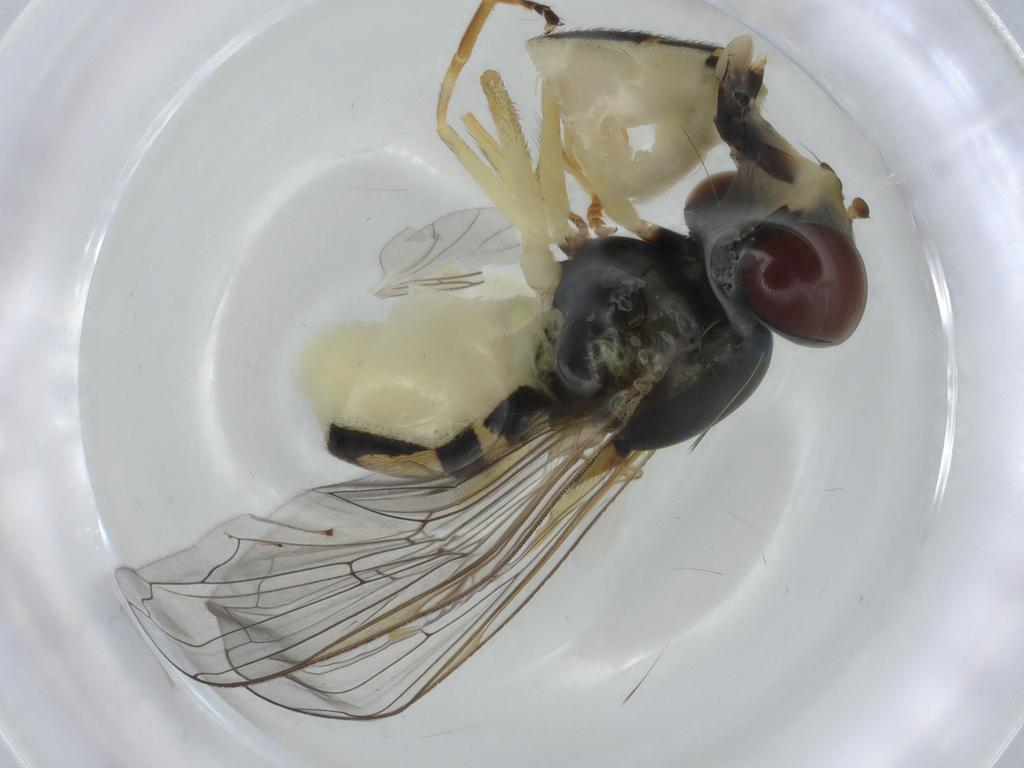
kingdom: Animalia
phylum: Arthropoda
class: Insecta
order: Diptera
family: Syrphidae
